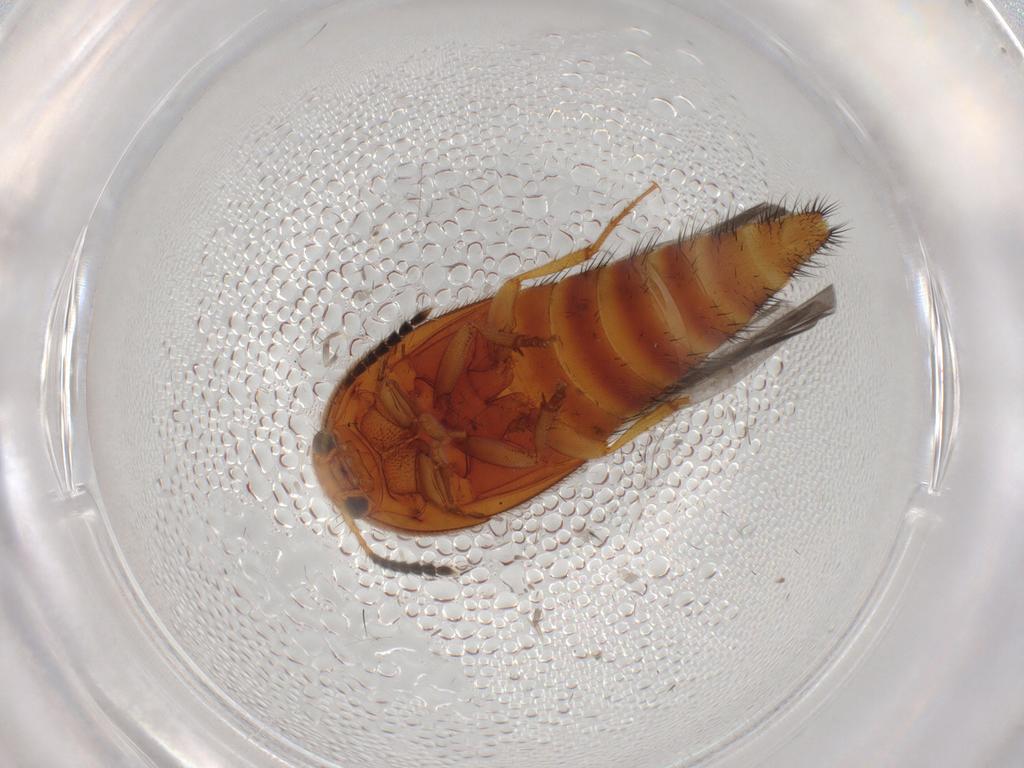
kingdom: Animalia
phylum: Arthropoda
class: Insecta
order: Coleoptera
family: Staphylinidae
